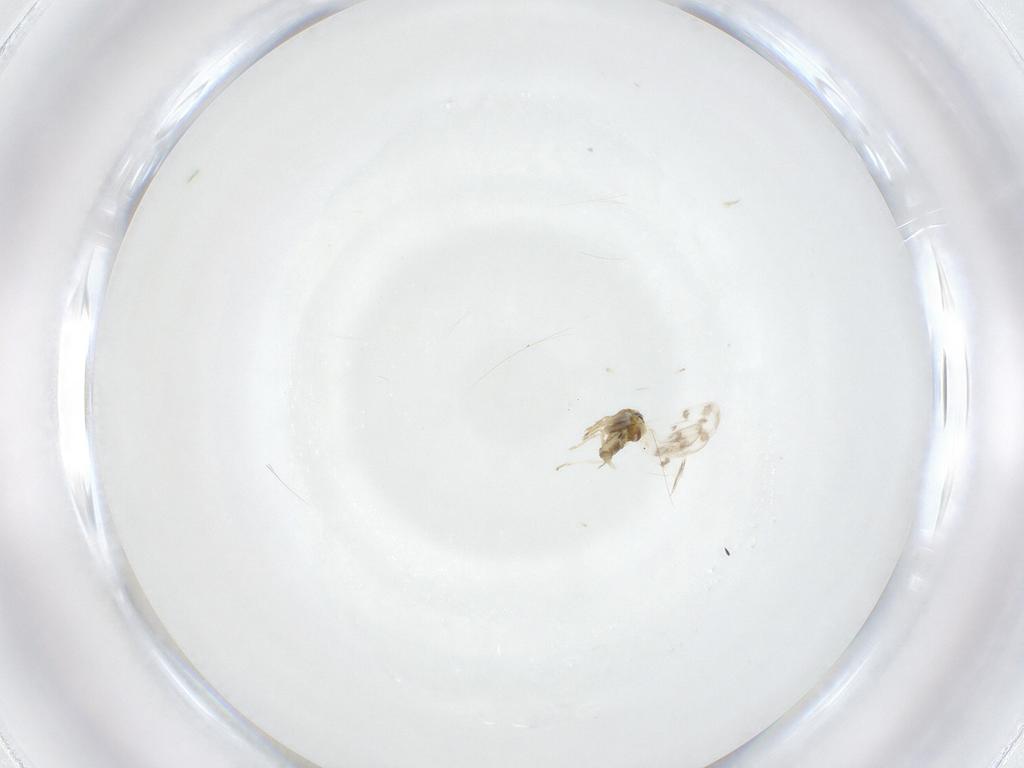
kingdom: Animalia
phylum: Arthropoda
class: Insecta
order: Hemiptera
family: Aleyrodidae
